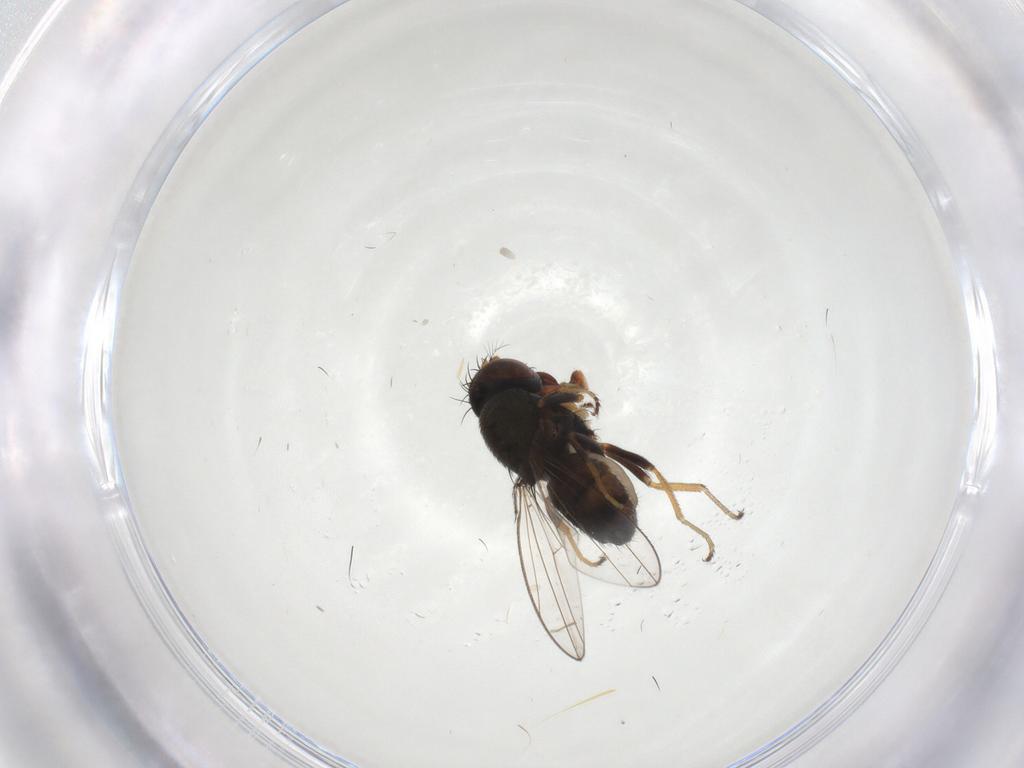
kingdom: Animalia
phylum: Arthropoda
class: Insecta
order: Diptera
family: Ephydridae
